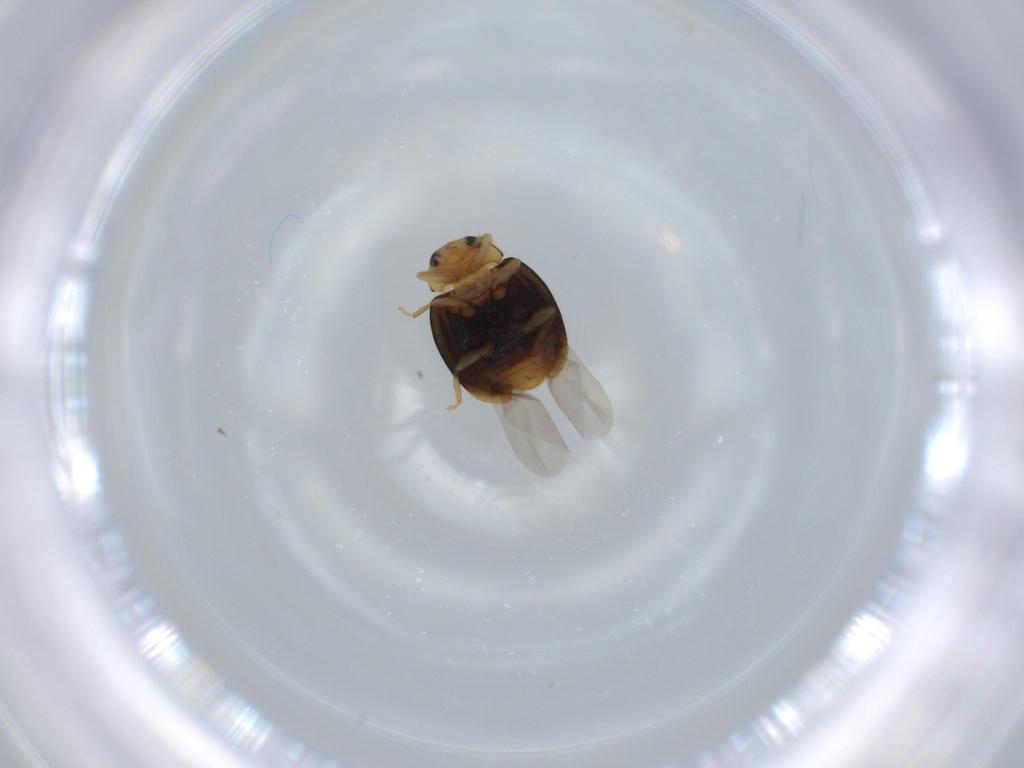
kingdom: Animalia
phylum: Arthropoda
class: Insecta
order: Coleoptera
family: Coccinellidae
